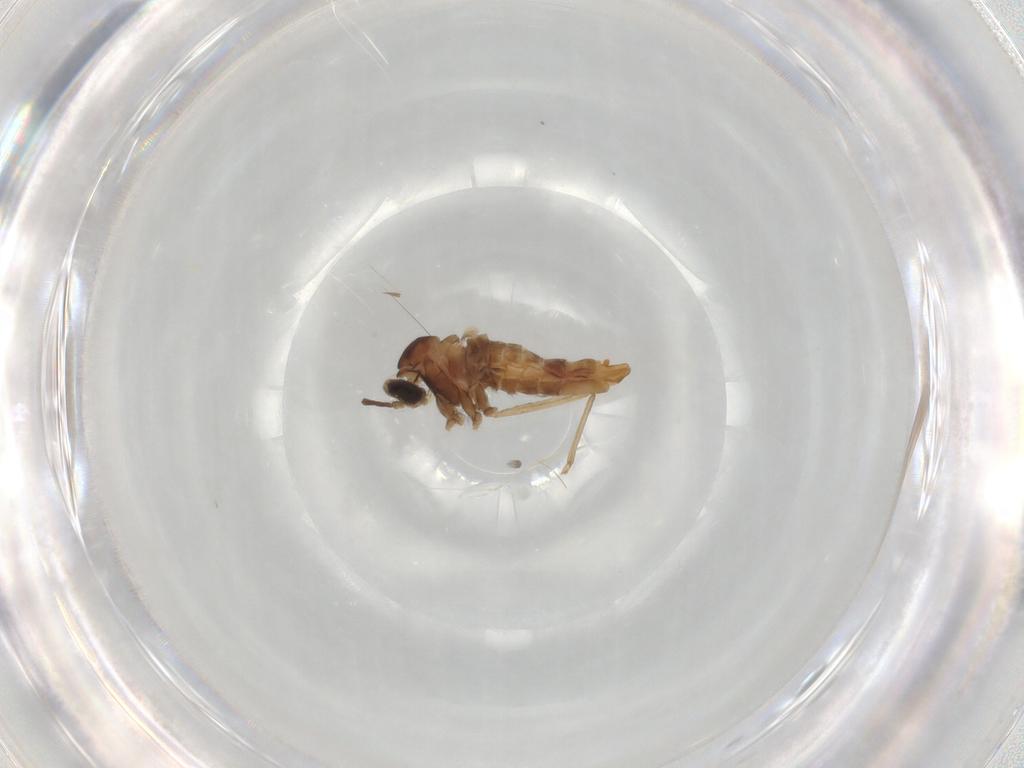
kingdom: Animalia
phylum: Arthropoda
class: Insecta
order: Diptera
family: Cecidomyiidae
